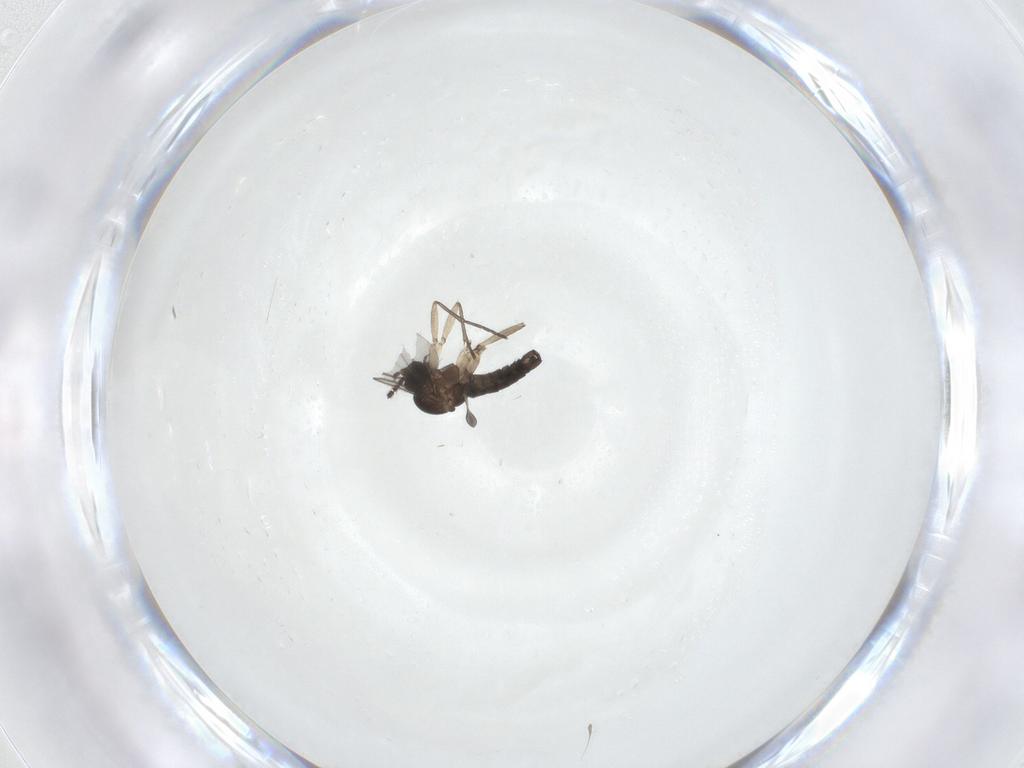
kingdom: Animalia
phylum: Arthropoda
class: Insecta
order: Diptera
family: Sciaridae
